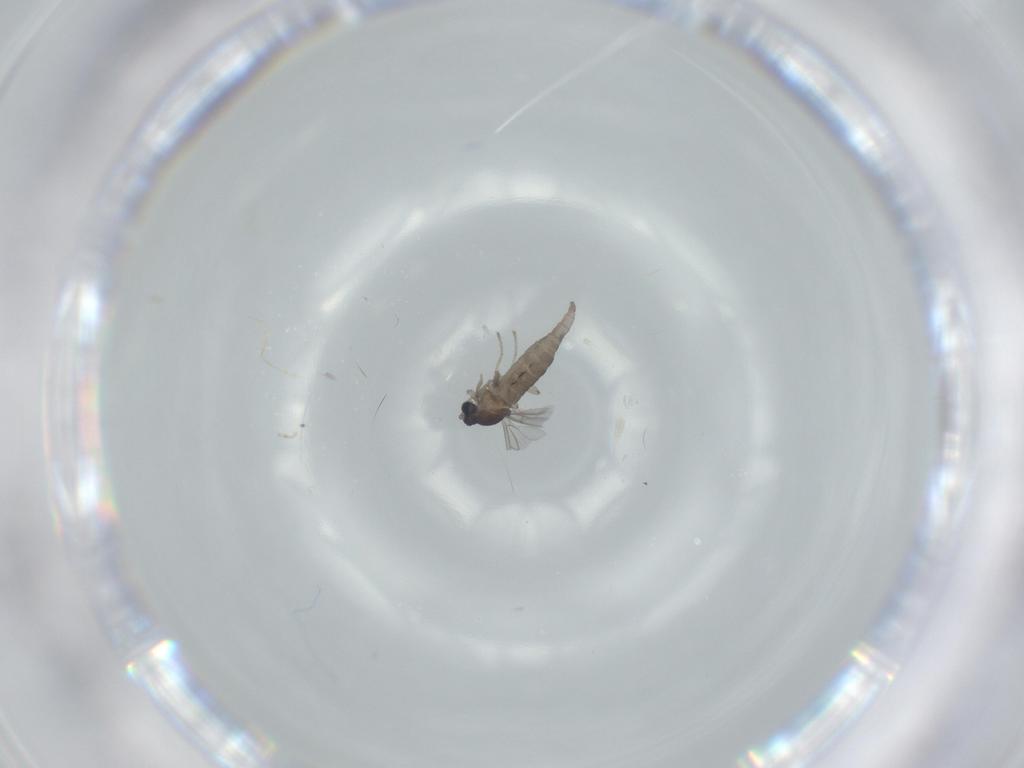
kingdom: Animalia
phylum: Arthropoda
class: Insecta
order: Diptera
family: Cecidomyiidae
